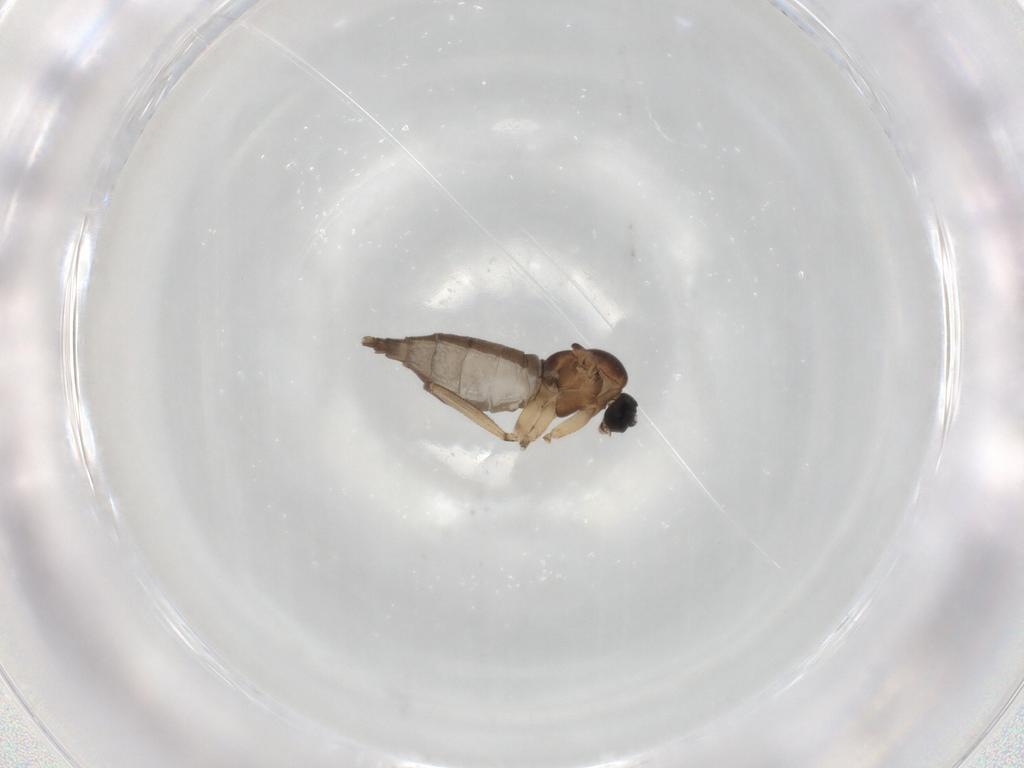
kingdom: Animalia
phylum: Arthropoda
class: Insecta
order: Diptera
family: Sciaridae
